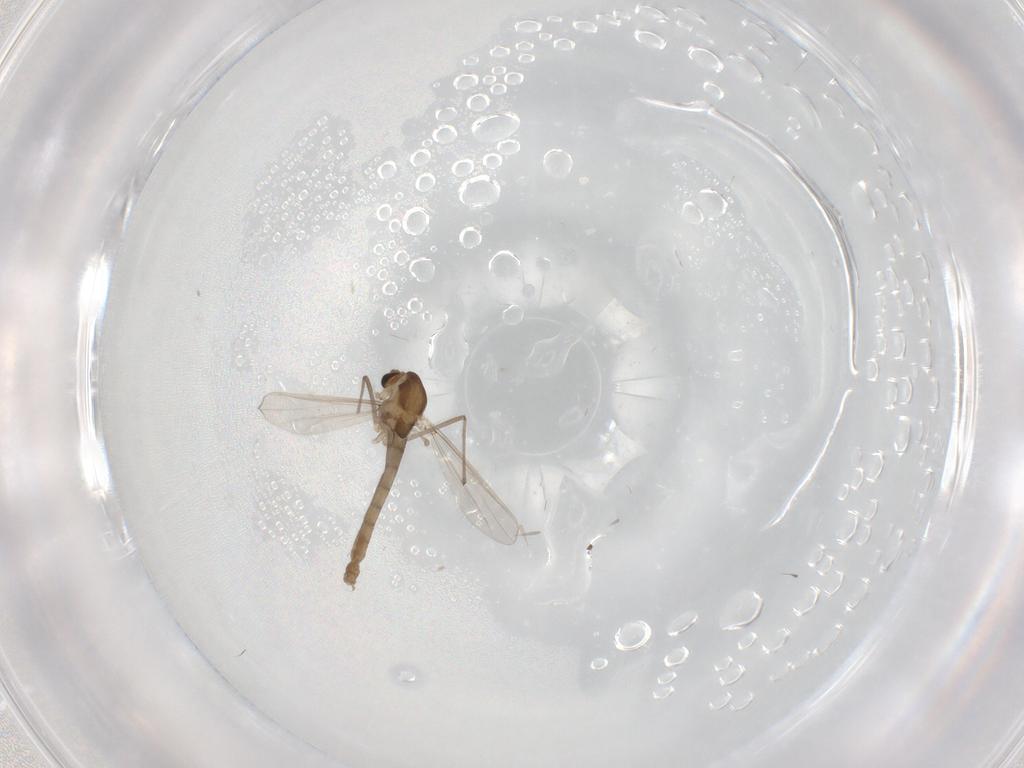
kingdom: Animalia
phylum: Arthropoda
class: Insecta
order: Diptera
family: Chironomidae
